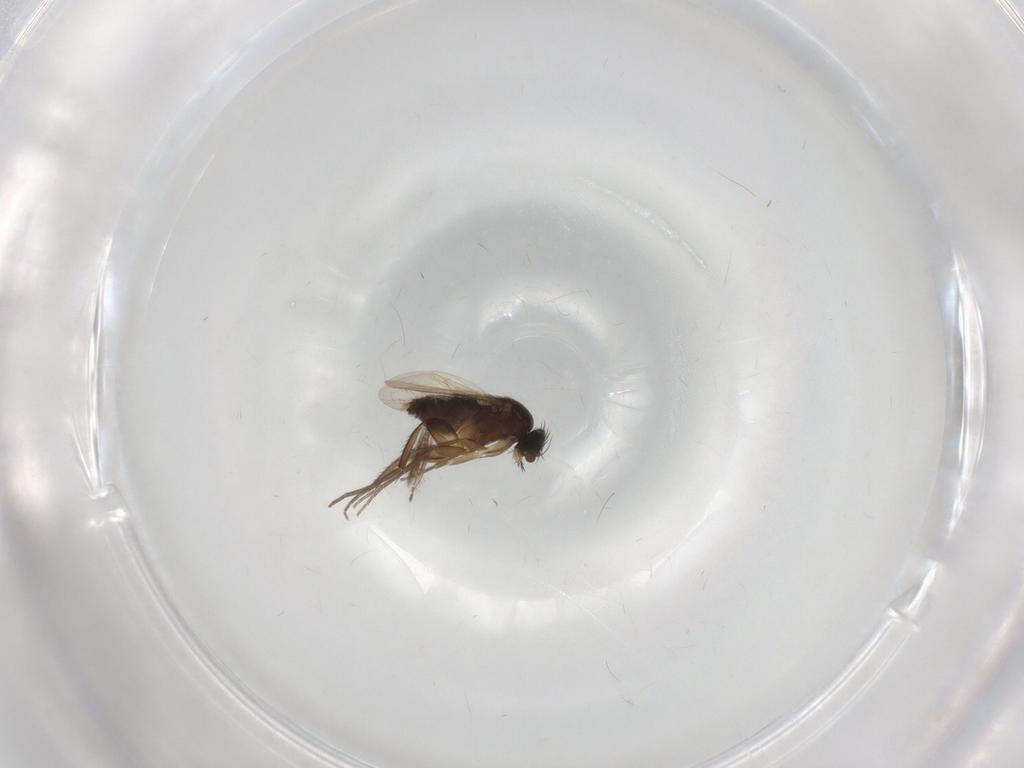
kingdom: Animalia
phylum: Arthropoda
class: Insecta
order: Diptera
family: Phoridae
